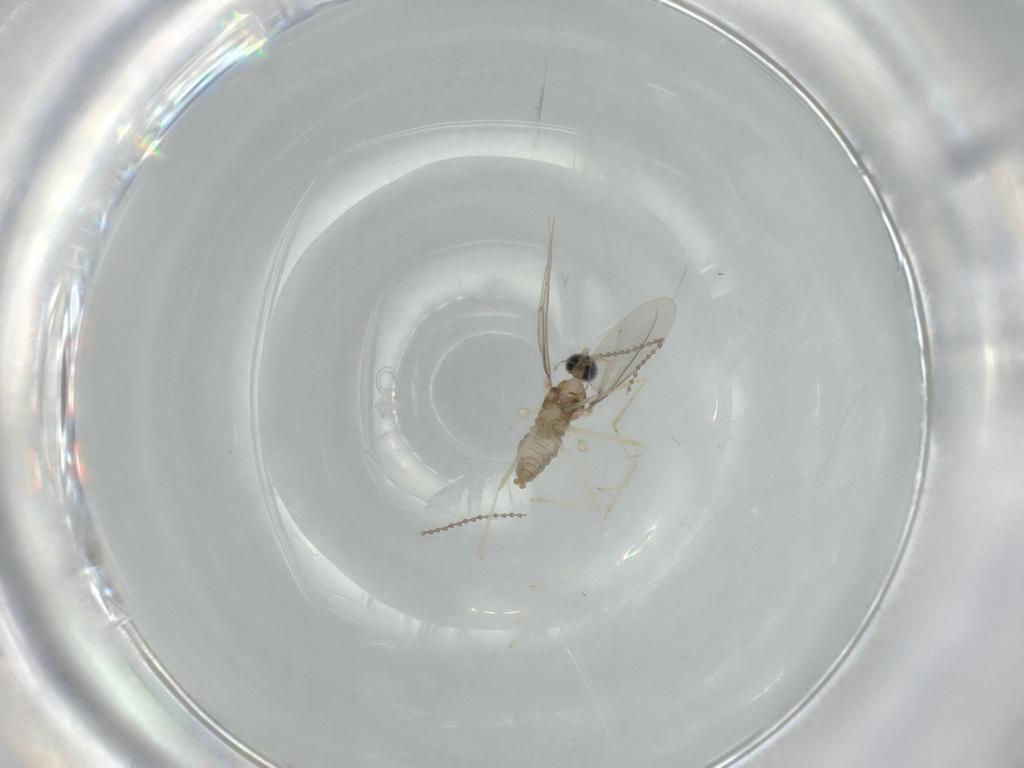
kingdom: Animalia
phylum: Arthropoda
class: Insecta
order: Diptera
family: Cecidomyiidae
